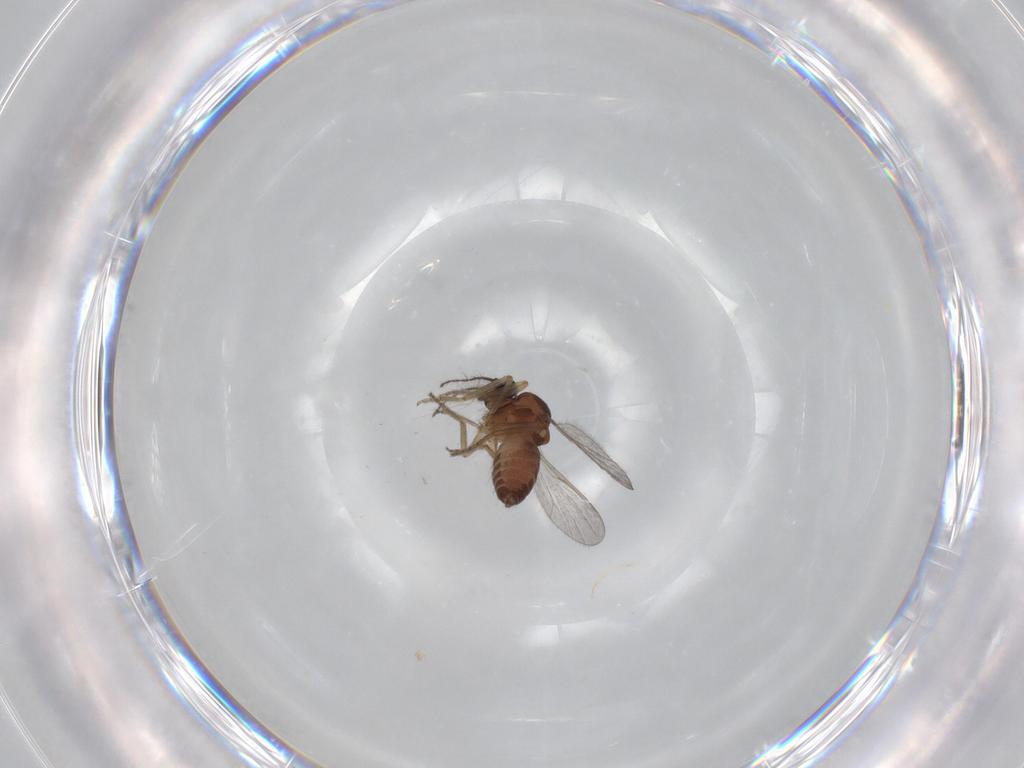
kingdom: Animalia
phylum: Arthropoda
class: Insecta
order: Diptera
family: Ceratopogonidae
